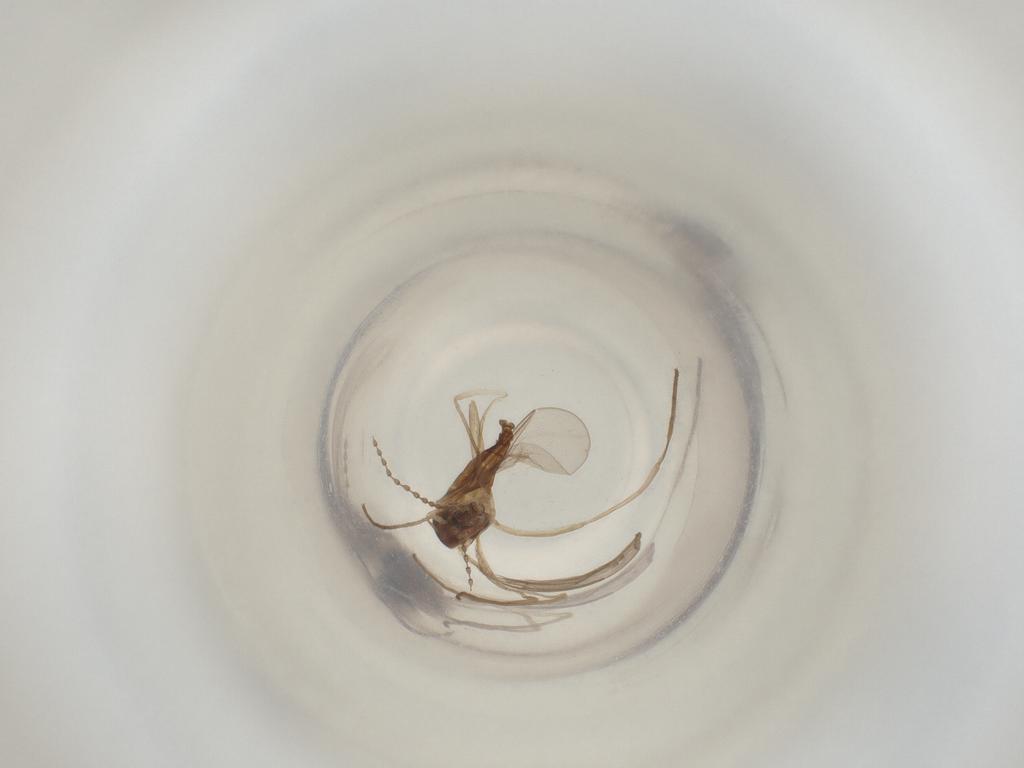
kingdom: Animalia
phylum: Arthropoda
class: Insecta
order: Diptera
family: Cecidomyiidae
